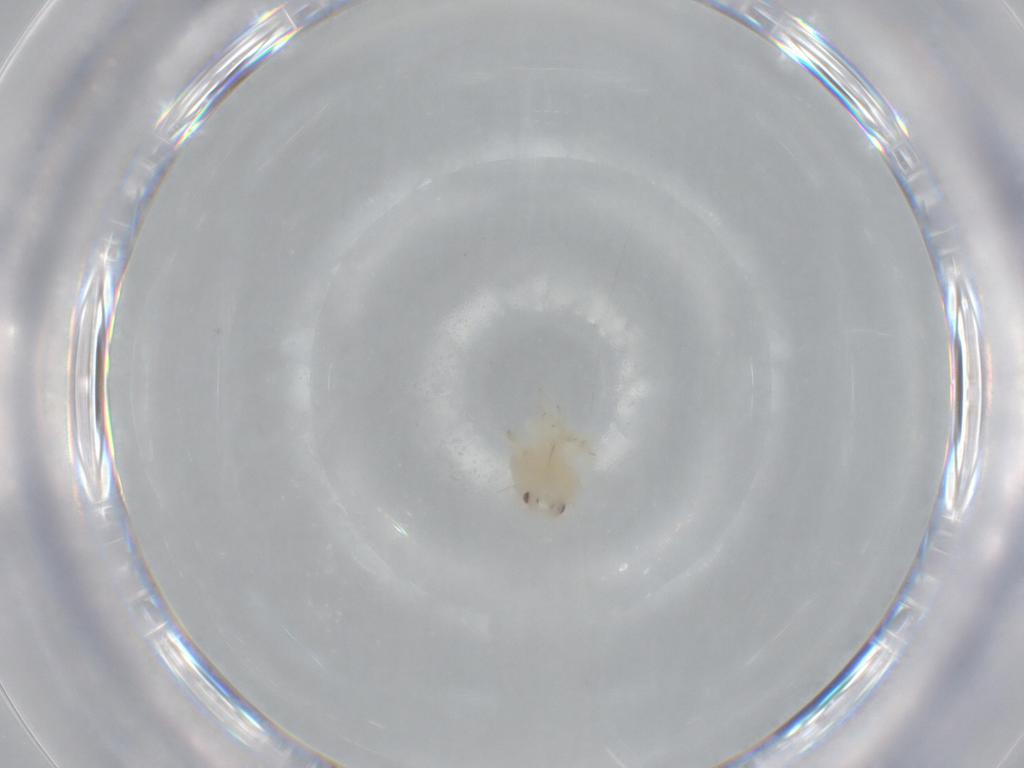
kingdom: Animalia
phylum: Arthropoda
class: Insecta
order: Hemiptera
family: Flatidae
